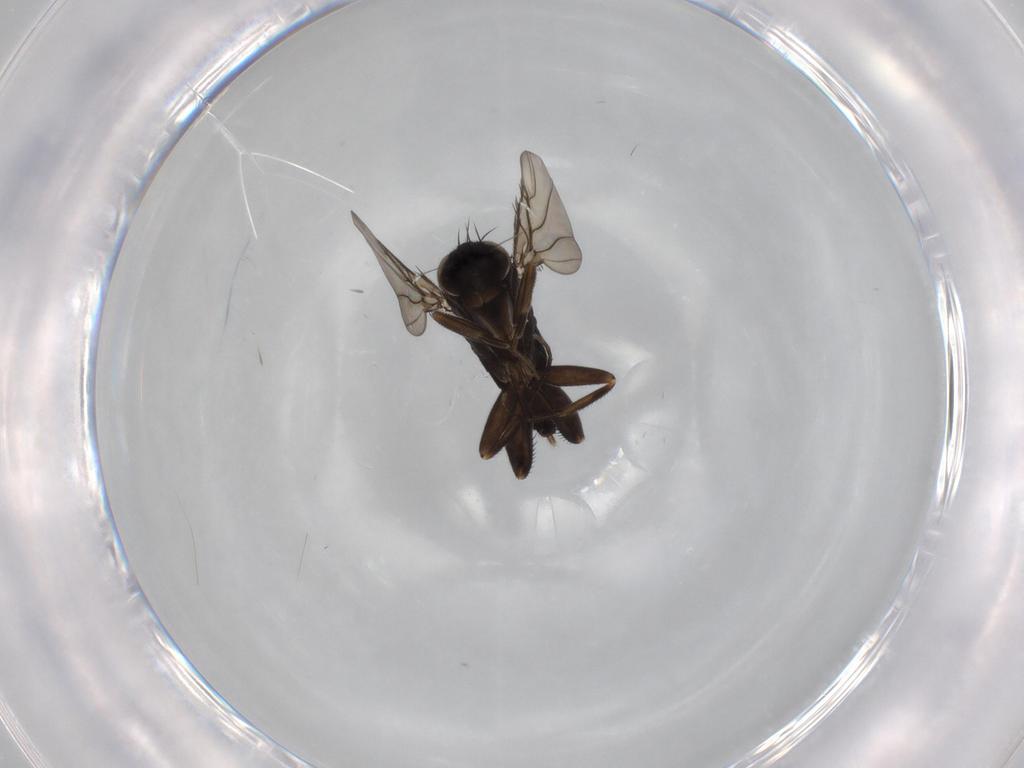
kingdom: Animalia
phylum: Arthropoda
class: Insecta
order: Diptera
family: Phoridae
